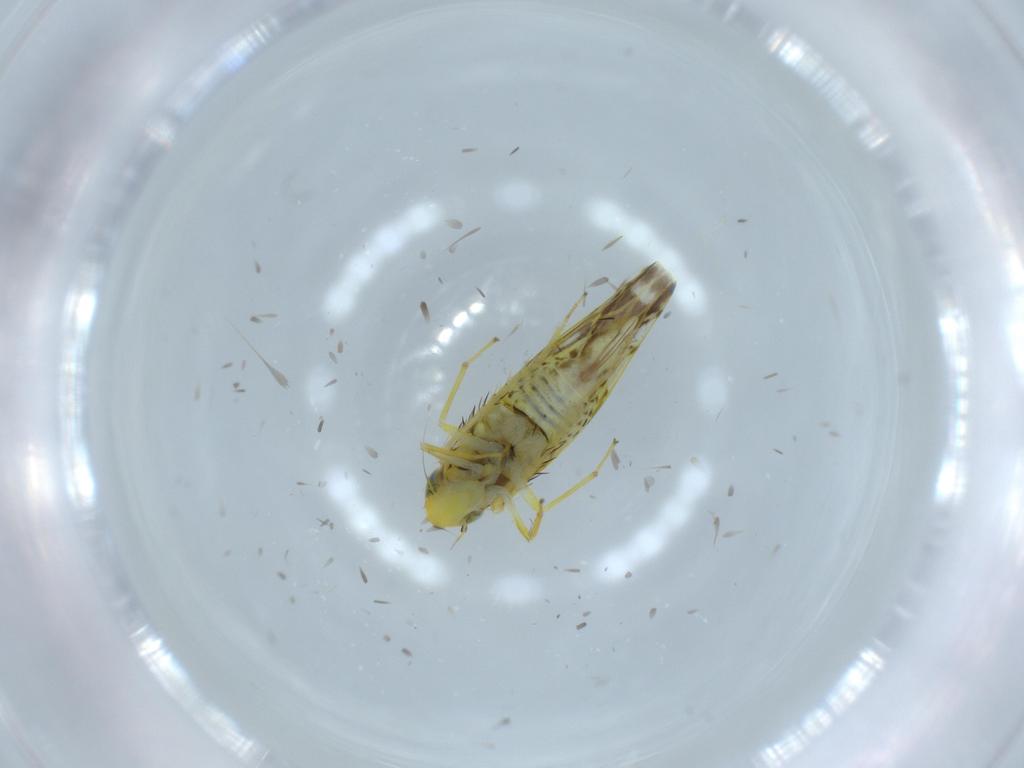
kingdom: Animalia
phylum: Arthropoda
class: Insecta
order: Hemiptera
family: Cicadellidae
